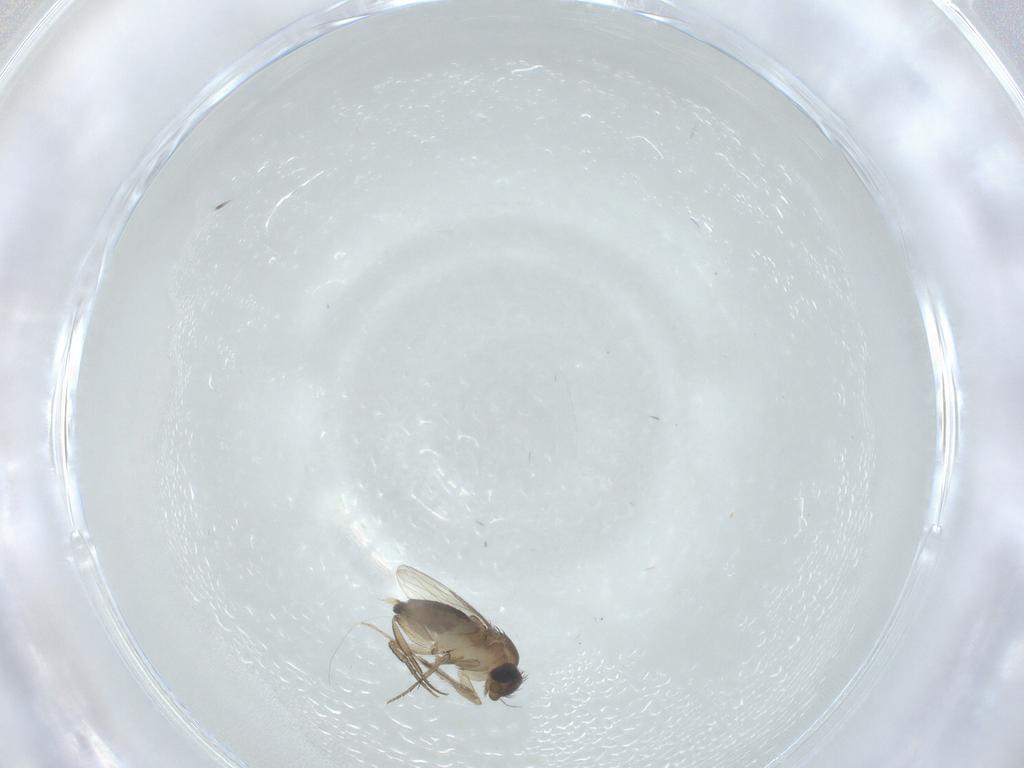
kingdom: Animalia
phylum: Arthropoda
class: Insecta
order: Diptera
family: Phoridae
